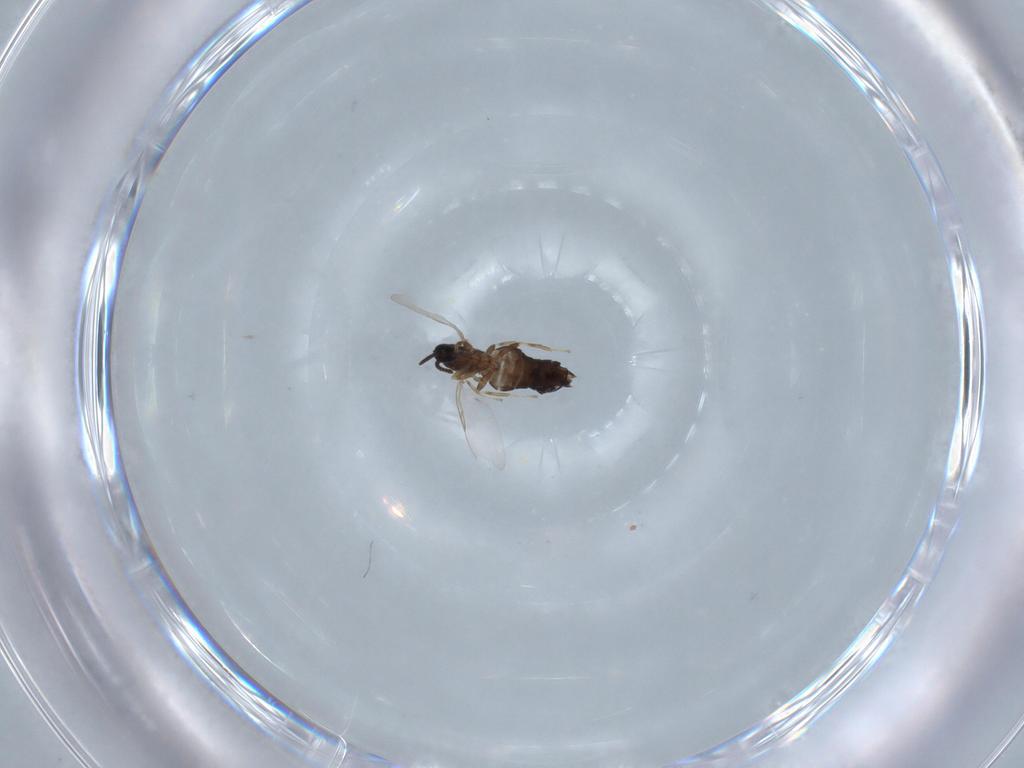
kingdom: Animalia
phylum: Arthropoda
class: Insecta
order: Diptera
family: Scatopsidae
